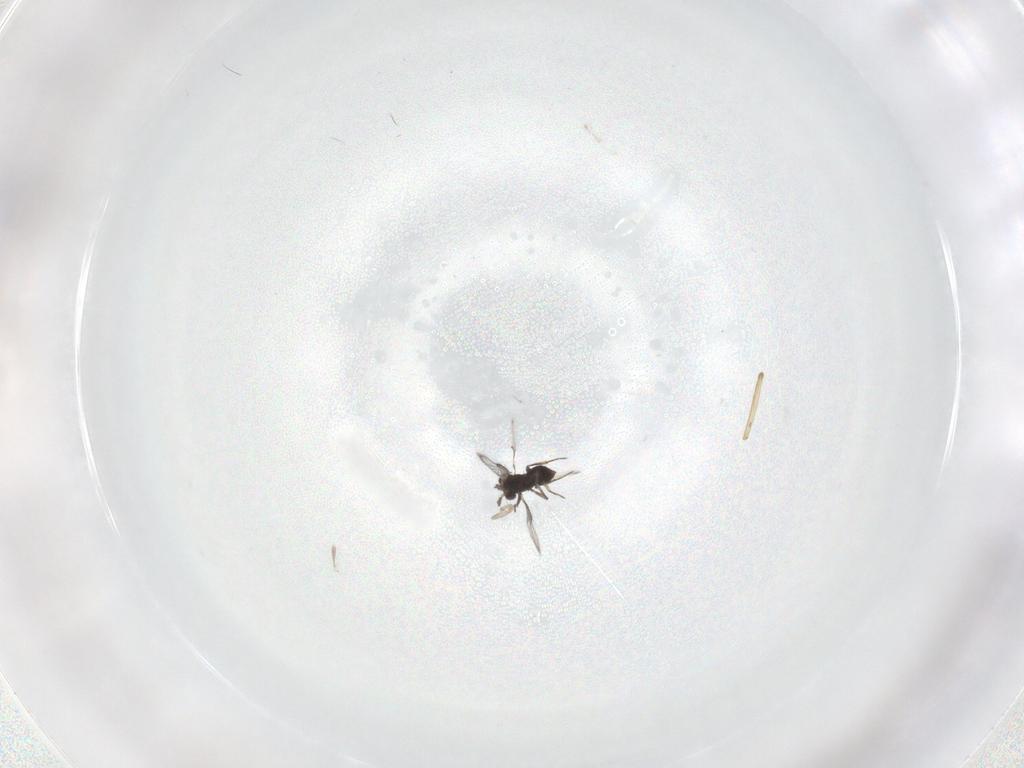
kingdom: Animalia
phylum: Arthropoda
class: Insecta
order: Hymenoptera
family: Trichogrammatidae
